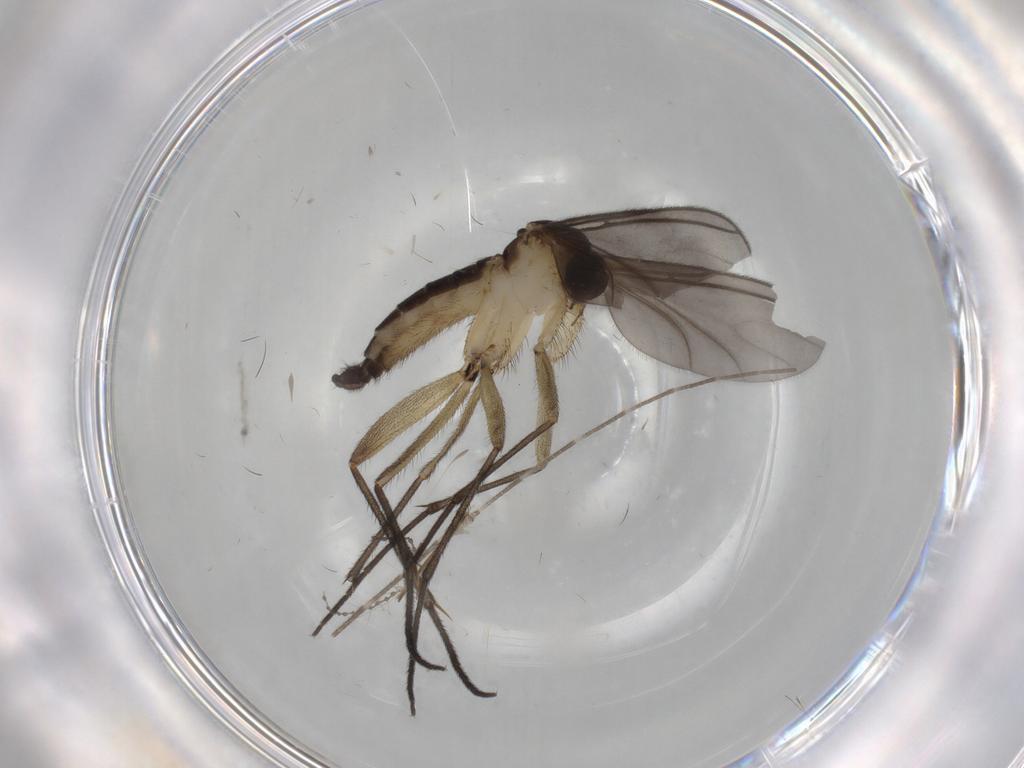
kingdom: Animalia
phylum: Arthropoda
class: Insecta
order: Diptera
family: Sciaridae
